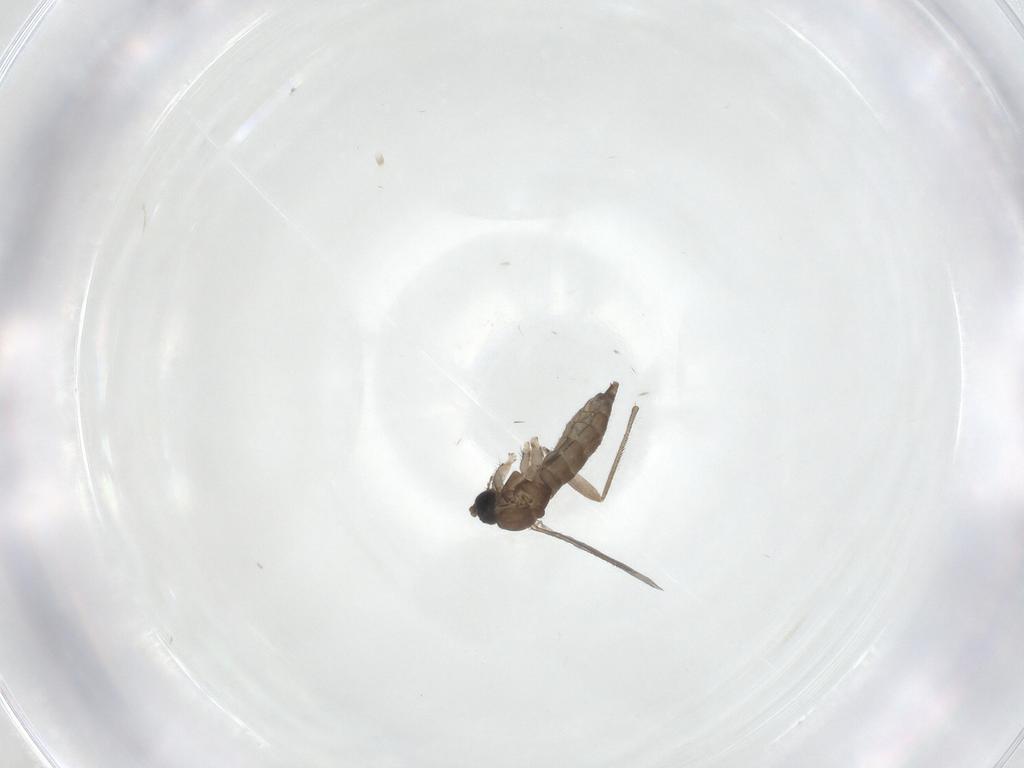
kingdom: Animalia
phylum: Arthropoda
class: Insecta
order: Diptera
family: Sciaridae
